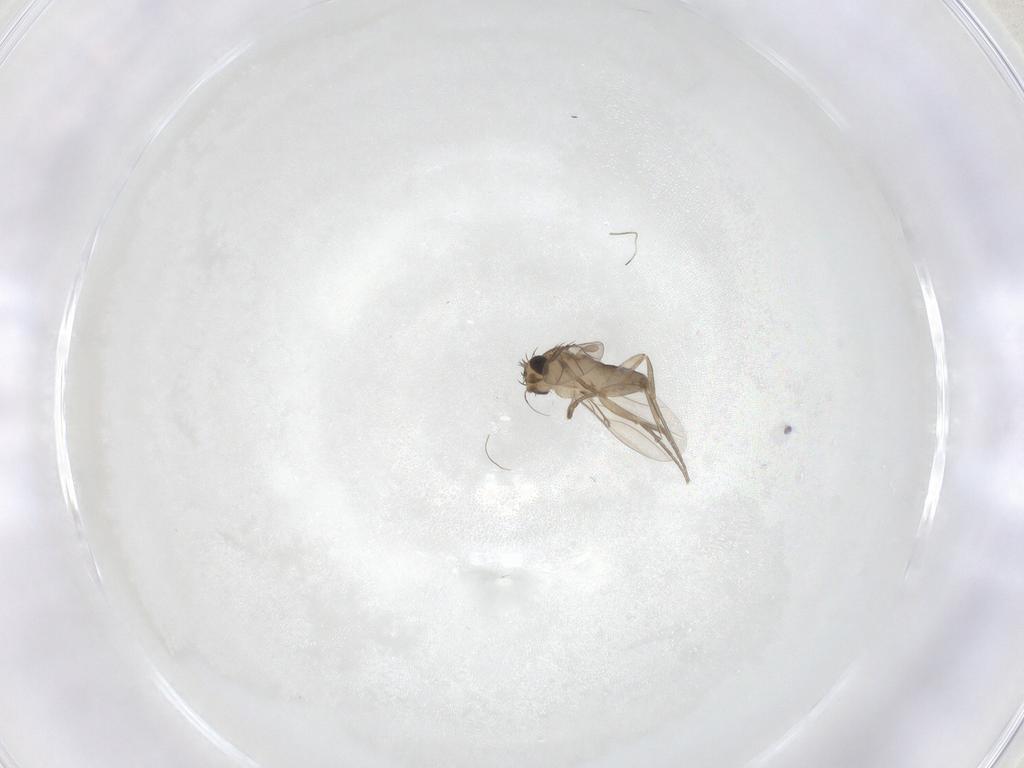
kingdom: Animalia
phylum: Arthropoda
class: Insecta
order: Diptera
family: Phoridae
